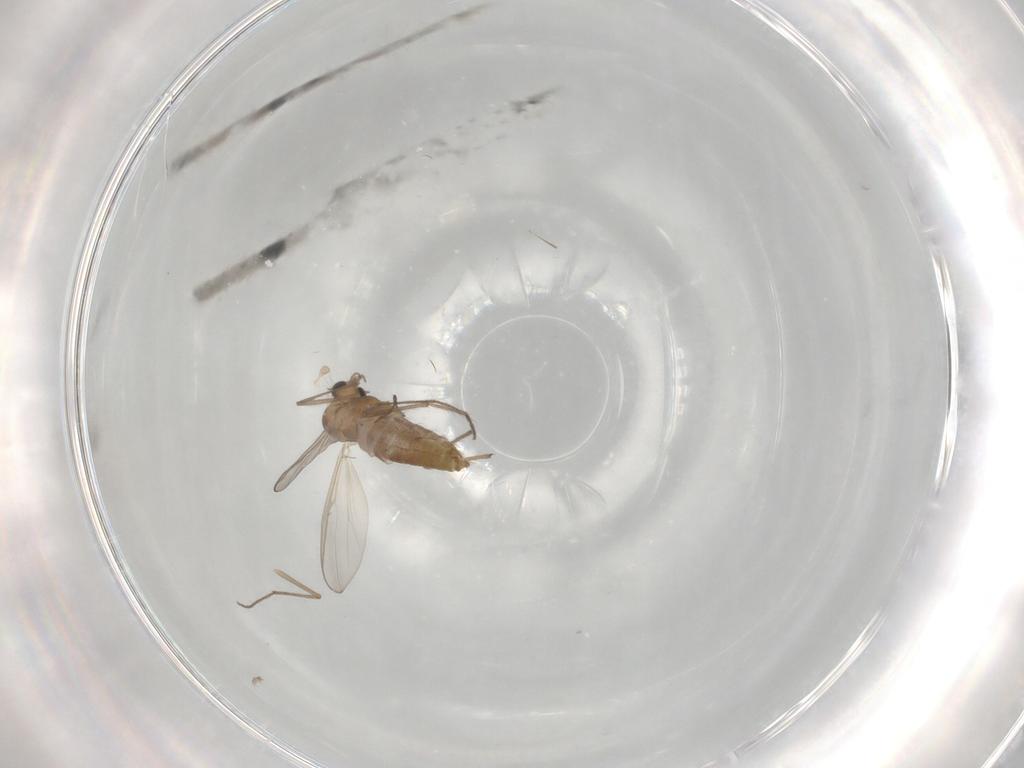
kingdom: Animalia
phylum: Arthropoda
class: Insecta
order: Diptera
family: Chironomidae
